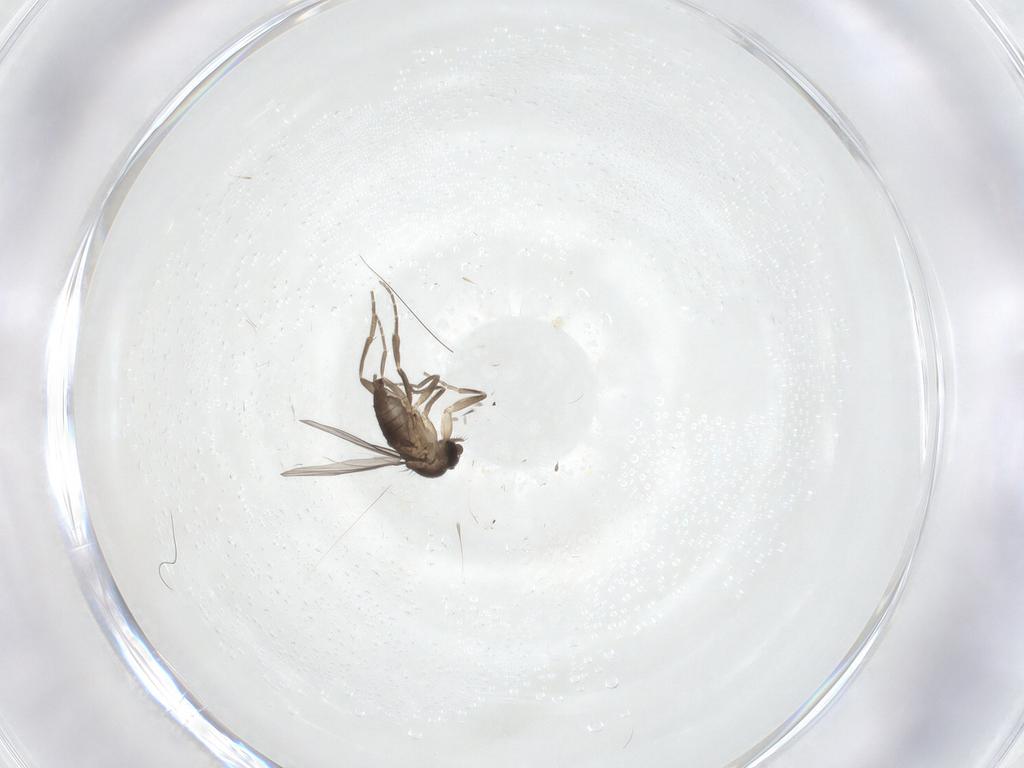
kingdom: Animalia
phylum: Arthropoda
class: Insecta
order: Diptera
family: Phoridae
